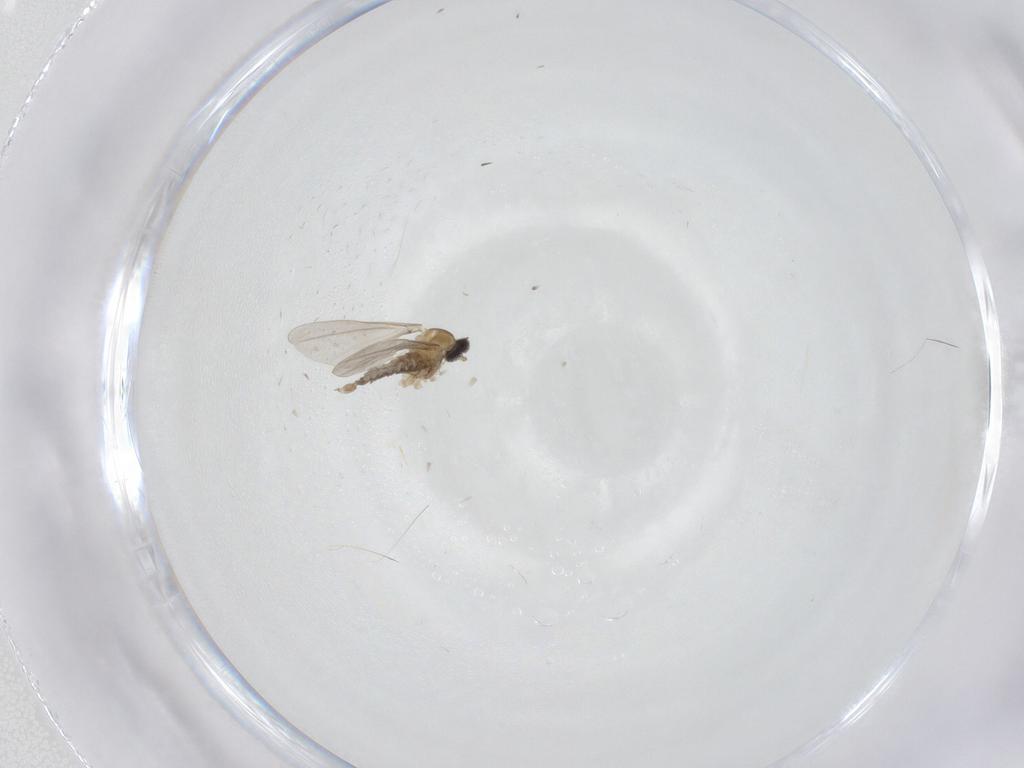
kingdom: Animalia
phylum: Arthropoda
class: Insecta
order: Diptera
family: Cecidomyiidae
